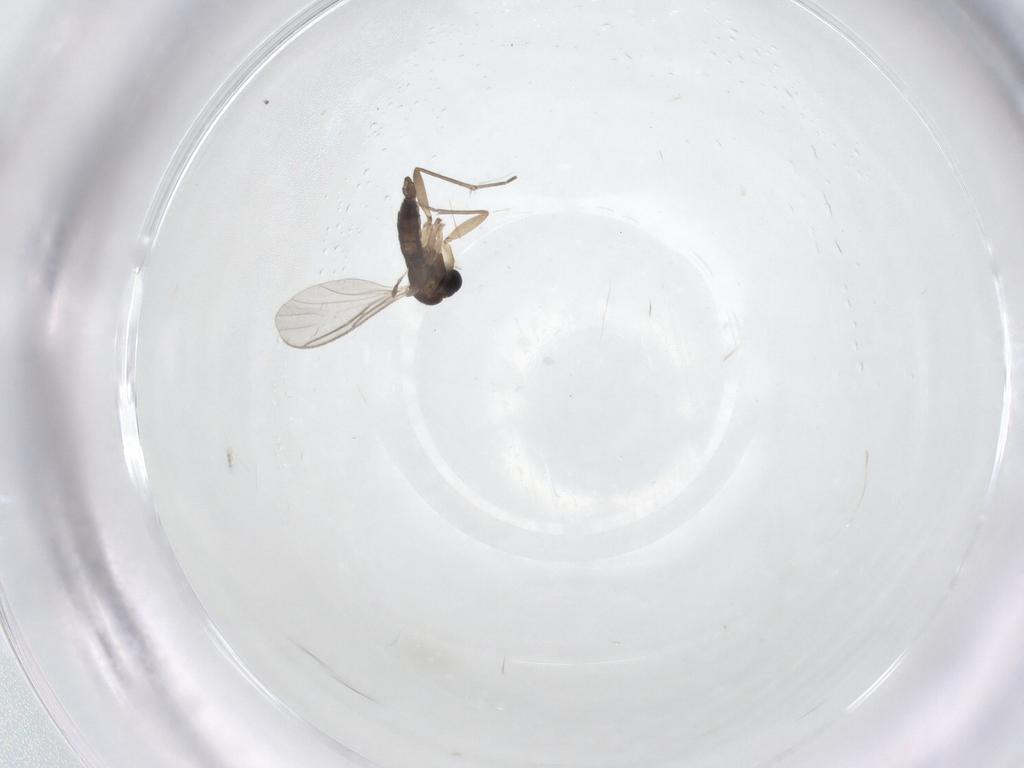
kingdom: Animalia
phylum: Arthropoda
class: Insecta
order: Diptera
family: Sciaridae
